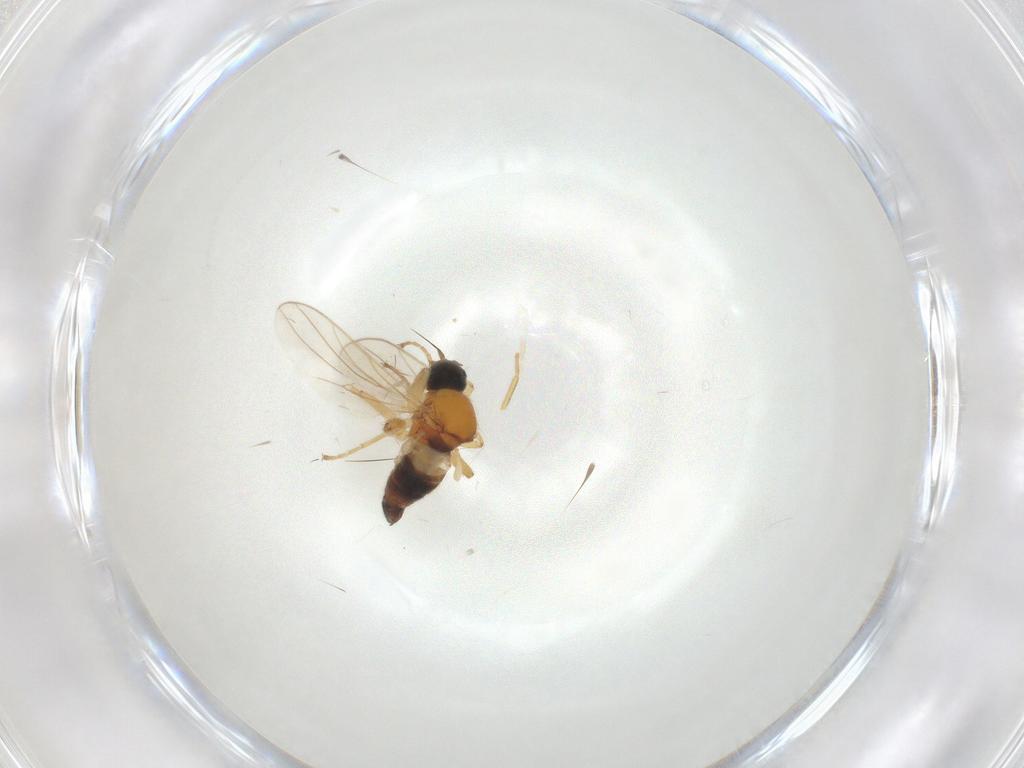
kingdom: Animalia
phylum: Arthropoda
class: Insecta
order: Diptera
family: Hybotidae
